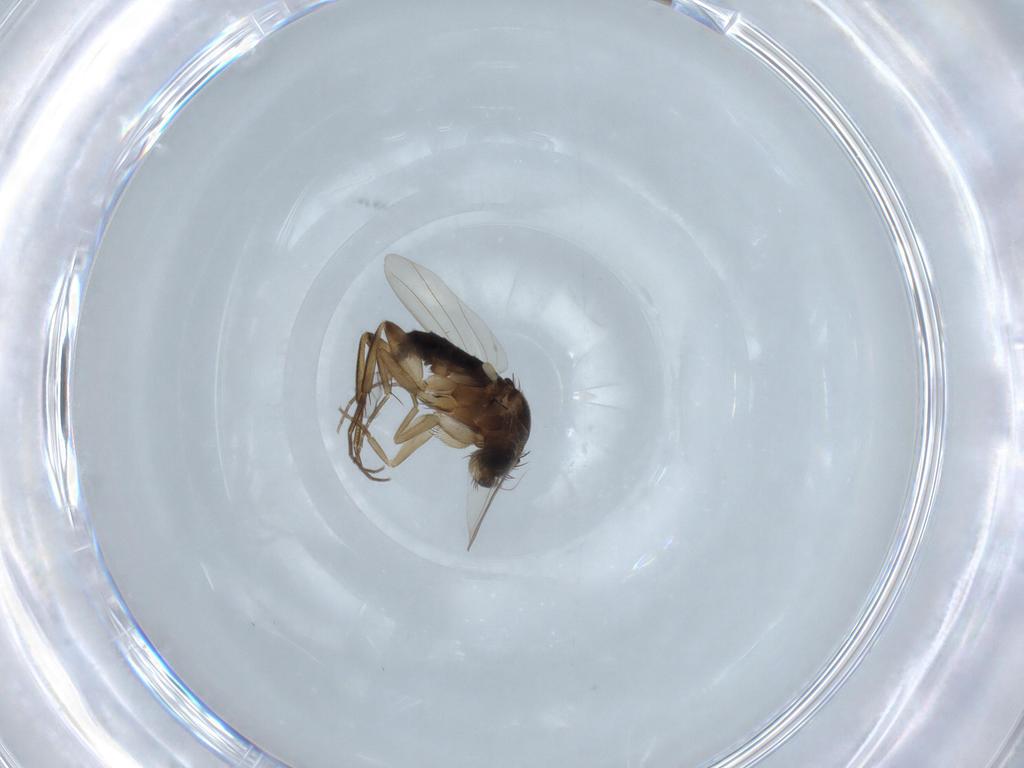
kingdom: Animalia
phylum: Arthropoda
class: Insecta
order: Diptera
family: Phoridae
